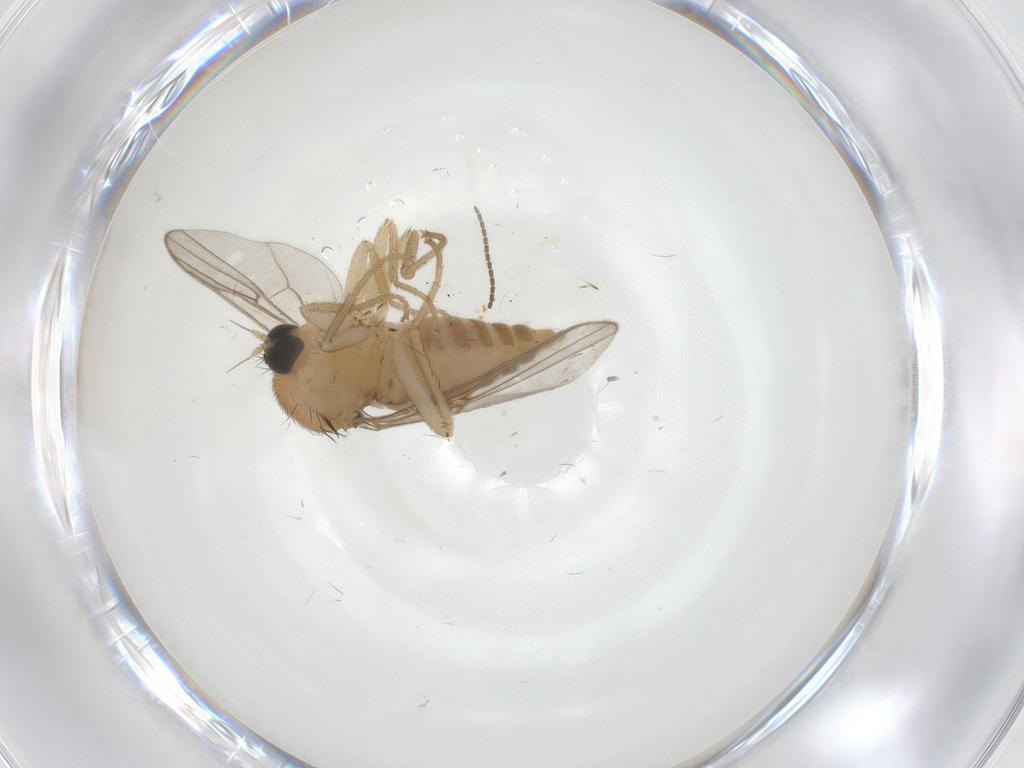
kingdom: Animalia
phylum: Arthropoda
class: Insecta
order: Diptera
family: Hybotidae
